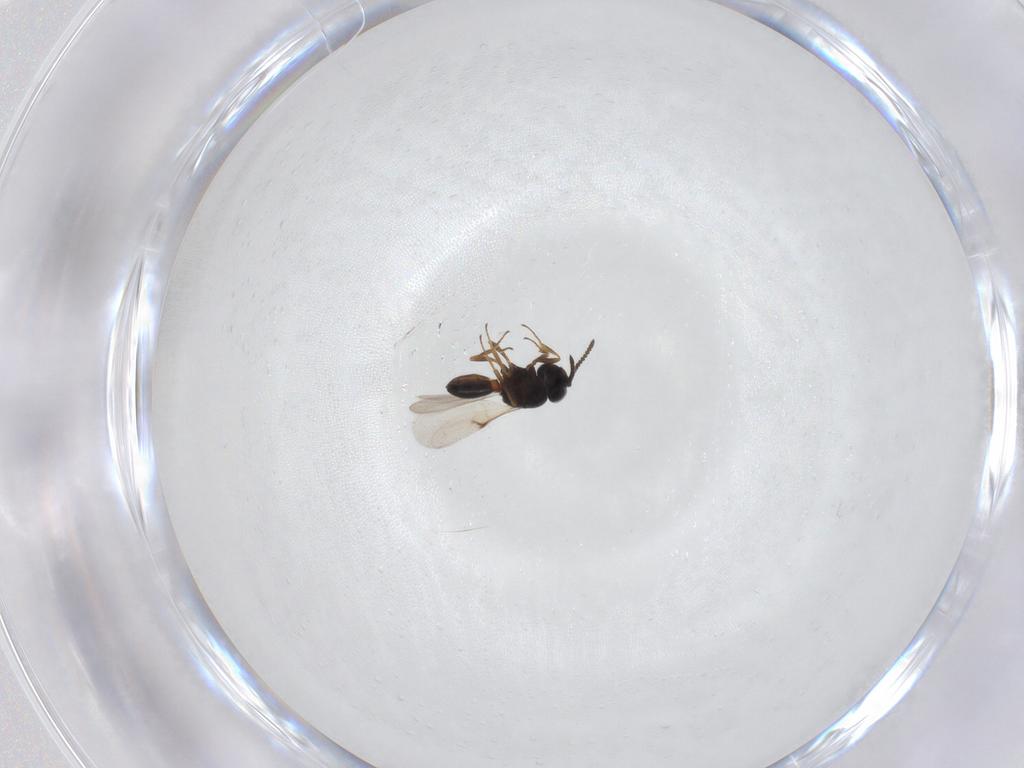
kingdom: Animalia
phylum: Arthropoda
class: Arachnida
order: Araneae
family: Pholcidae
